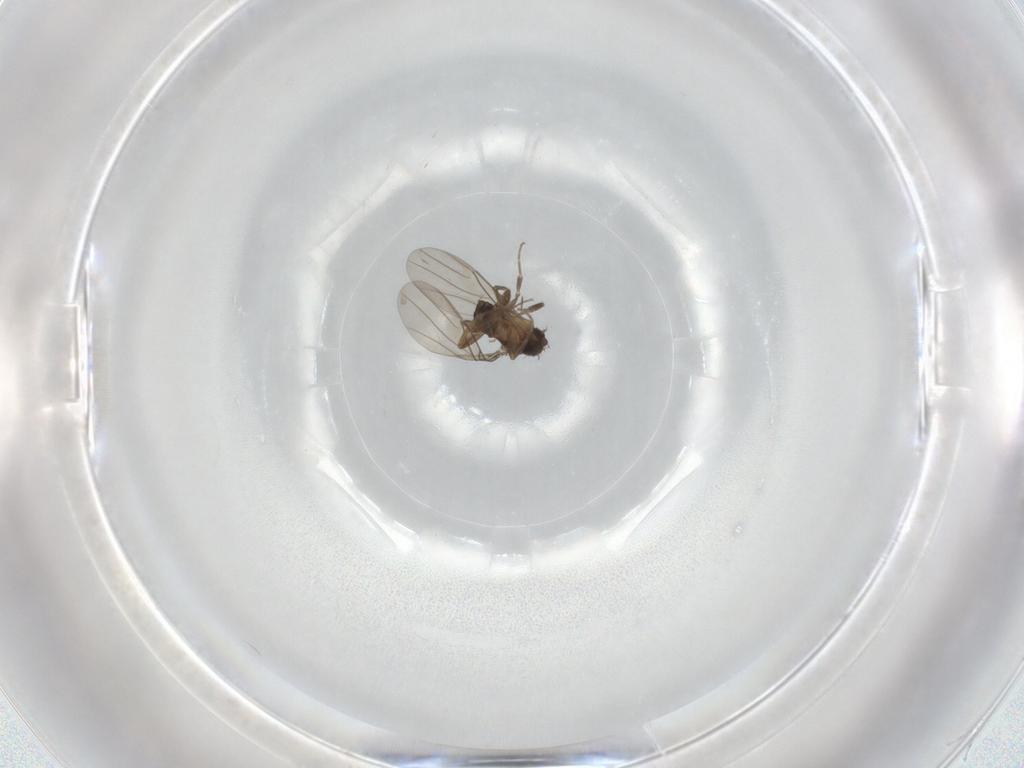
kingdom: Animalia
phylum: Arthropoda
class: Insecta
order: Diptera
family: Phoridae
